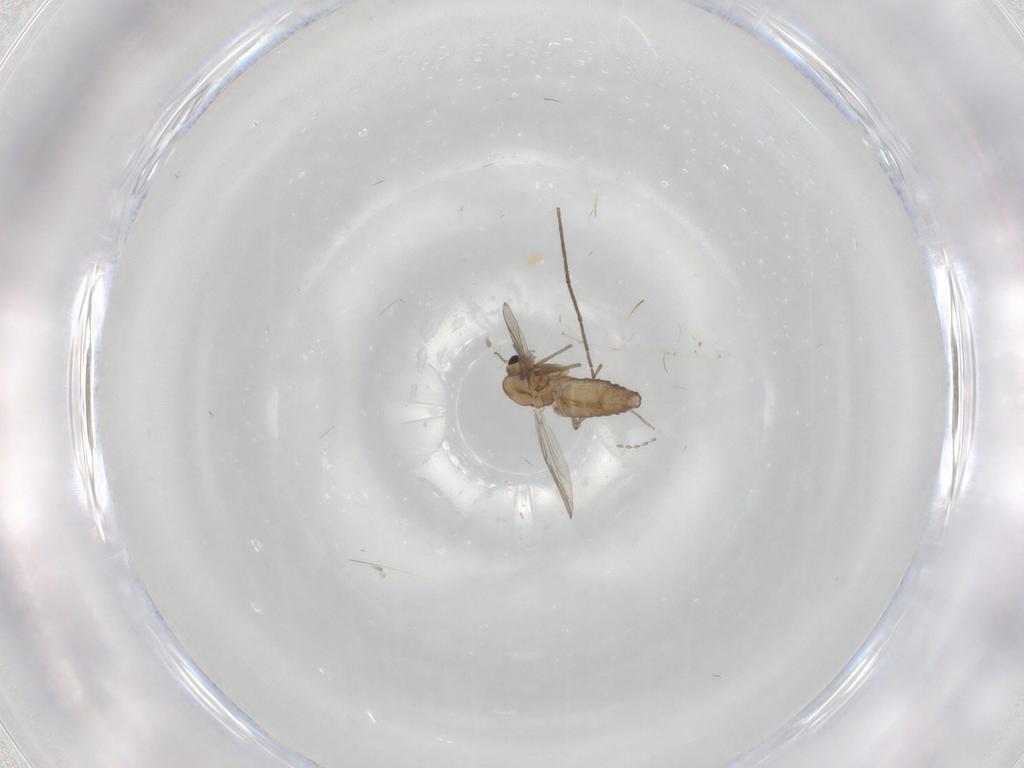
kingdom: Animalia
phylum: Arthropoda
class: Insecta
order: Diptera
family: Chironomidae
